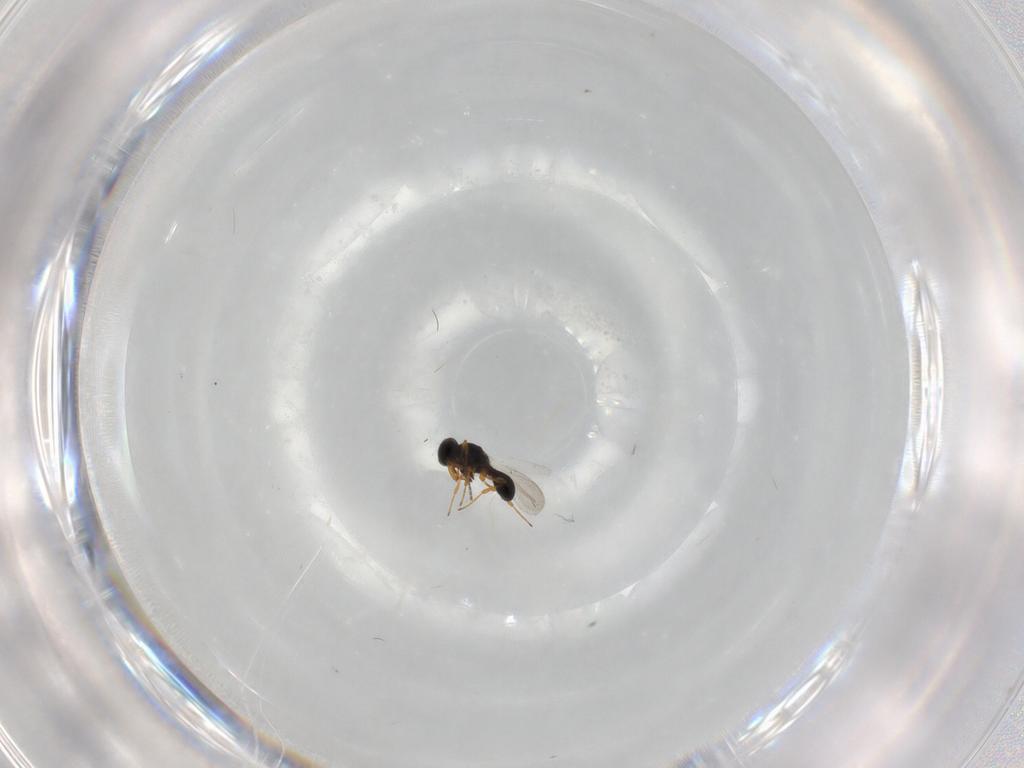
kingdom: Animalia
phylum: Arthropoda
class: Insecta
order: Hymenoptera
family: Platygastridae
